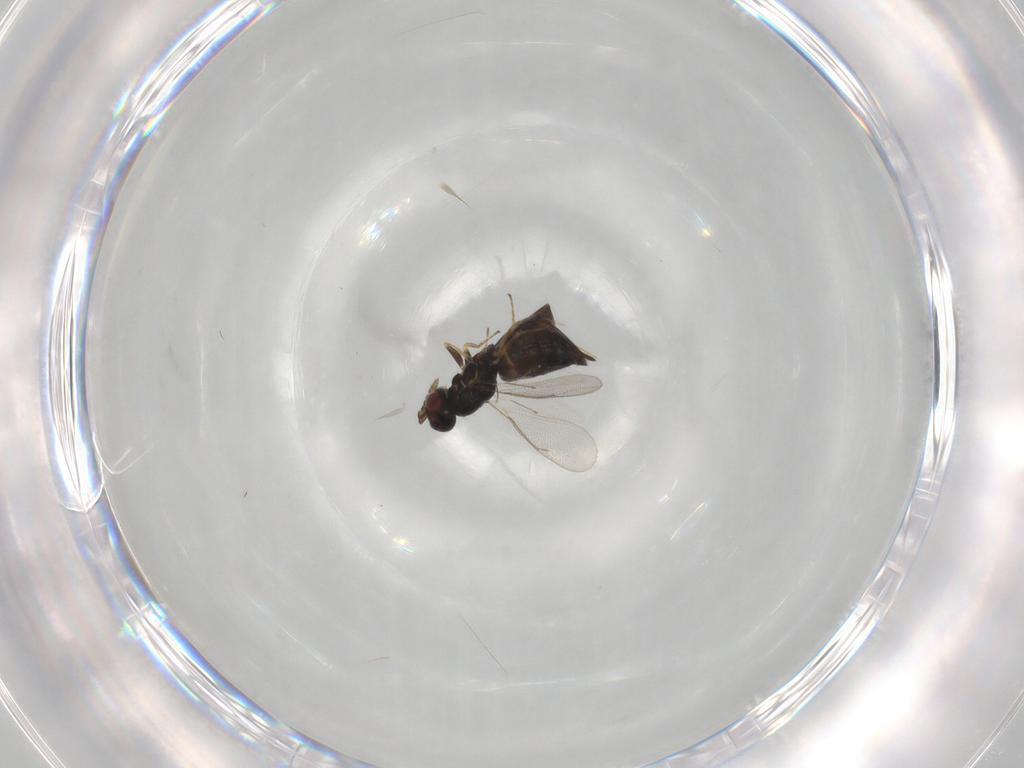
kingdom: Animalia
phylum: Arthropoda
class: Insecta
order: Hymenoptera
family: Eulophidae
